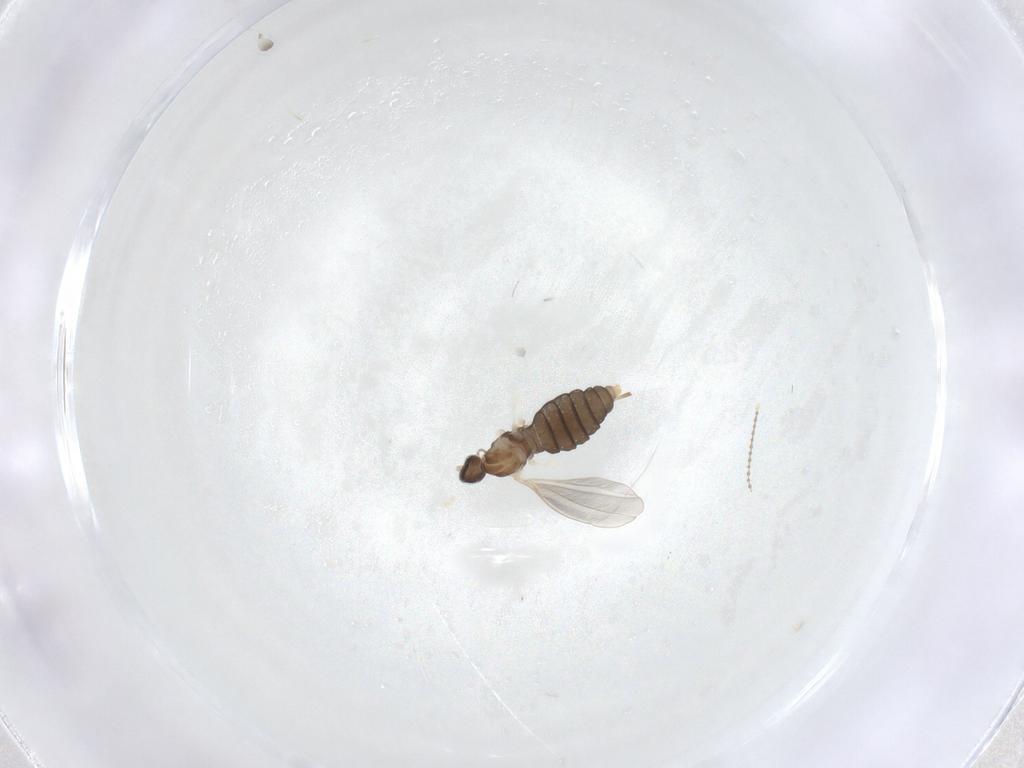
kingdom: Animalia
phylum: Arthropoda
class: Insecta
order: Diptera
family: Cecidomyiidae
